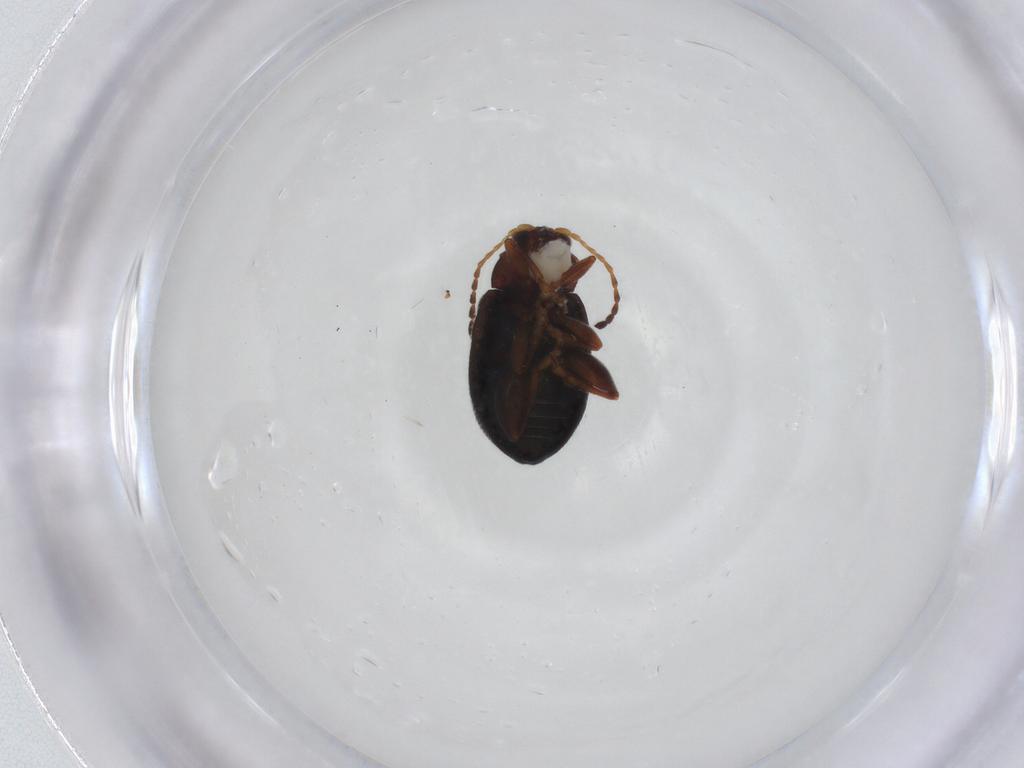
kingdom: Animalia
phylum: Arthropoda
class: Insecta
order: Coleoptera
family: Chrysomelidae
